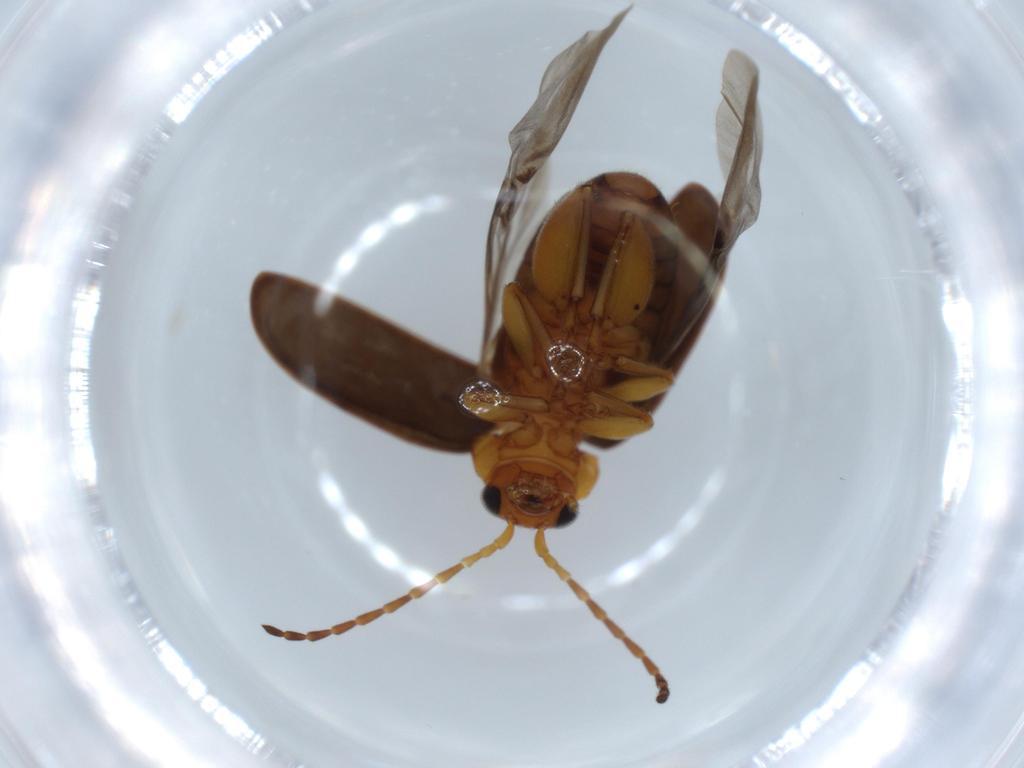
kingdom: Animalia
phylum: Arthropoda
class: Insecta
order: Coleoptera
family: Chrysomelidae
